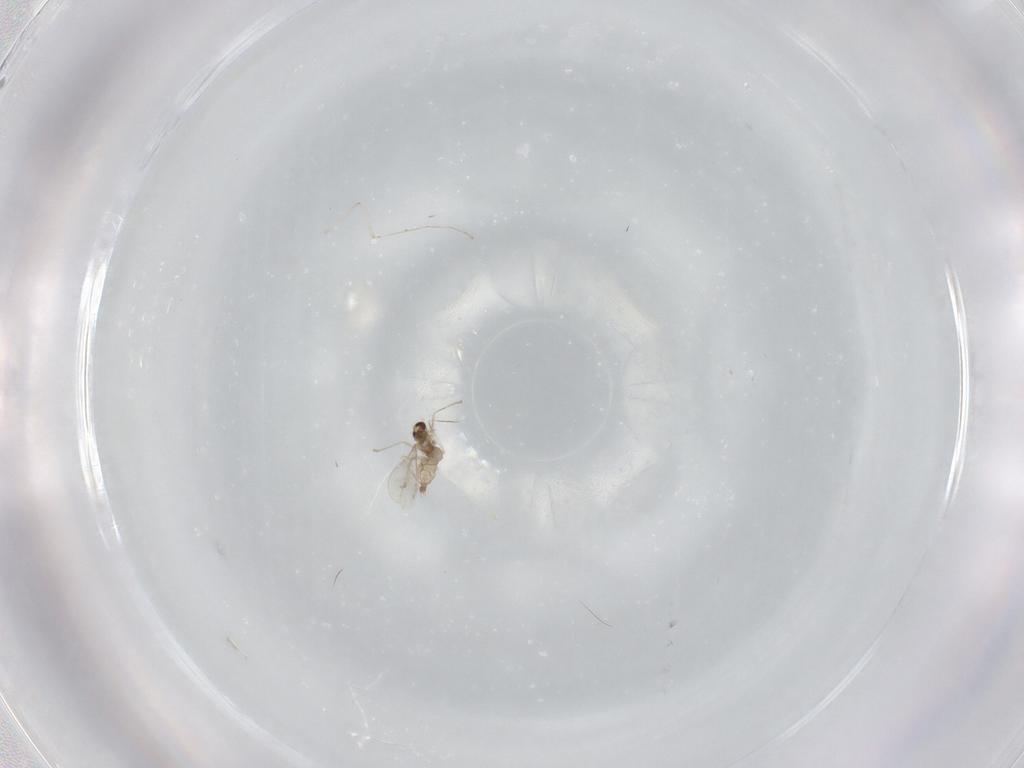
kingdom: Animalia
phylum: Arthropoda
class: Insecta
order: Diptera
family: Cecidomyiidae
